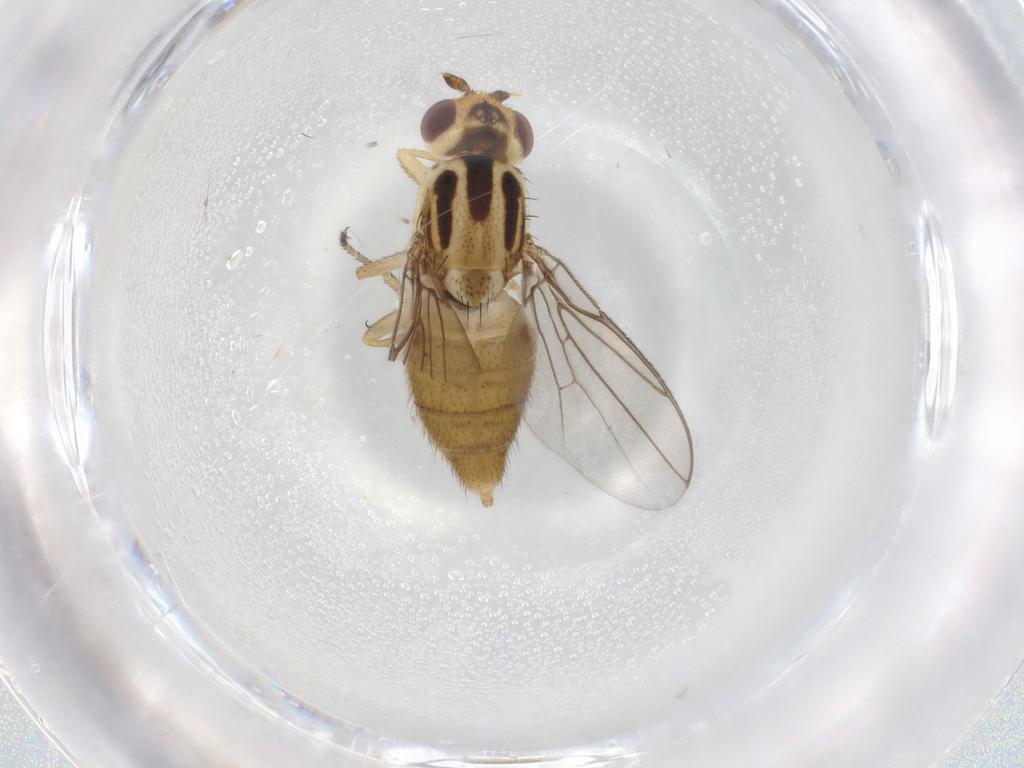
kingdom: Animalia
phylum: Arthropoda
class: Insecta
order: Diptera
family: Chloropidae
